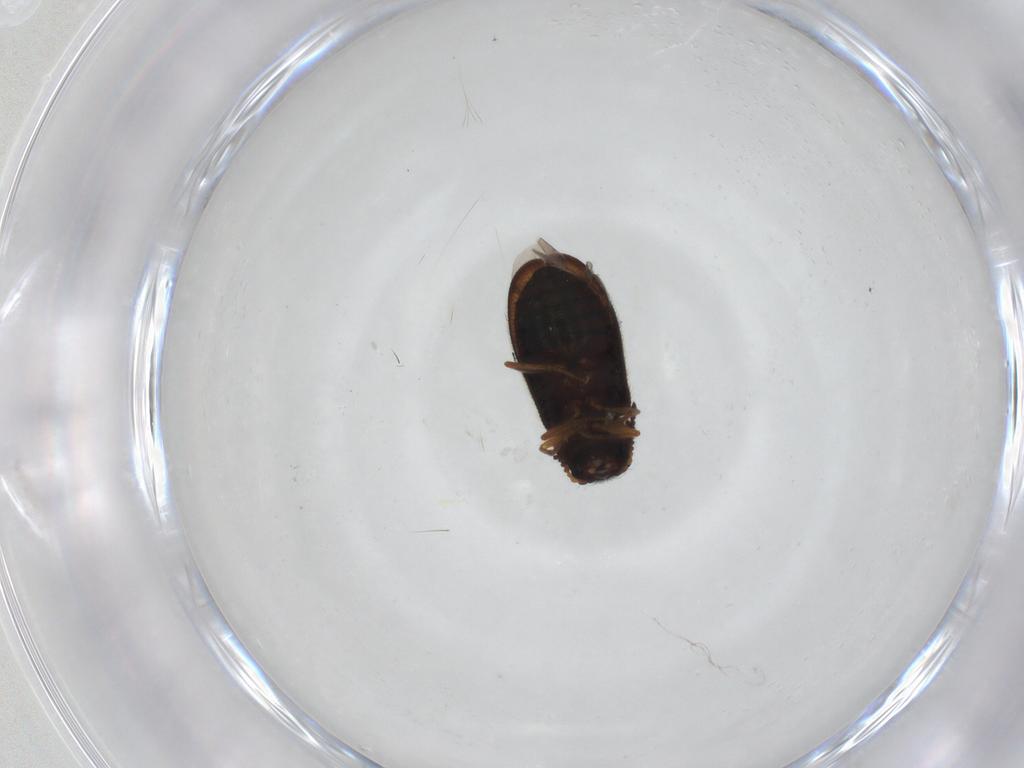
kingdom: Animalia
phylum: Arthropoda
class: Insecta
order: Coleoptera
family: Melyridae
